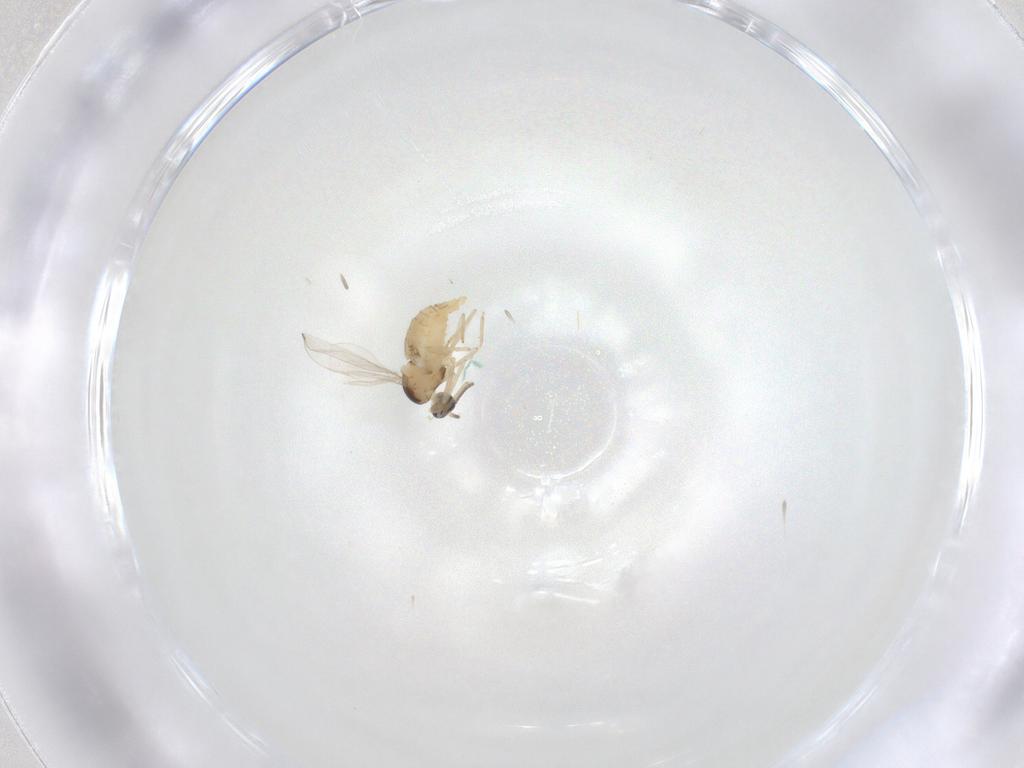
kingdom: Animalia
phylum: Arthropoda
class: Insecta
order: Diptera
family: Cecidomyiidae
